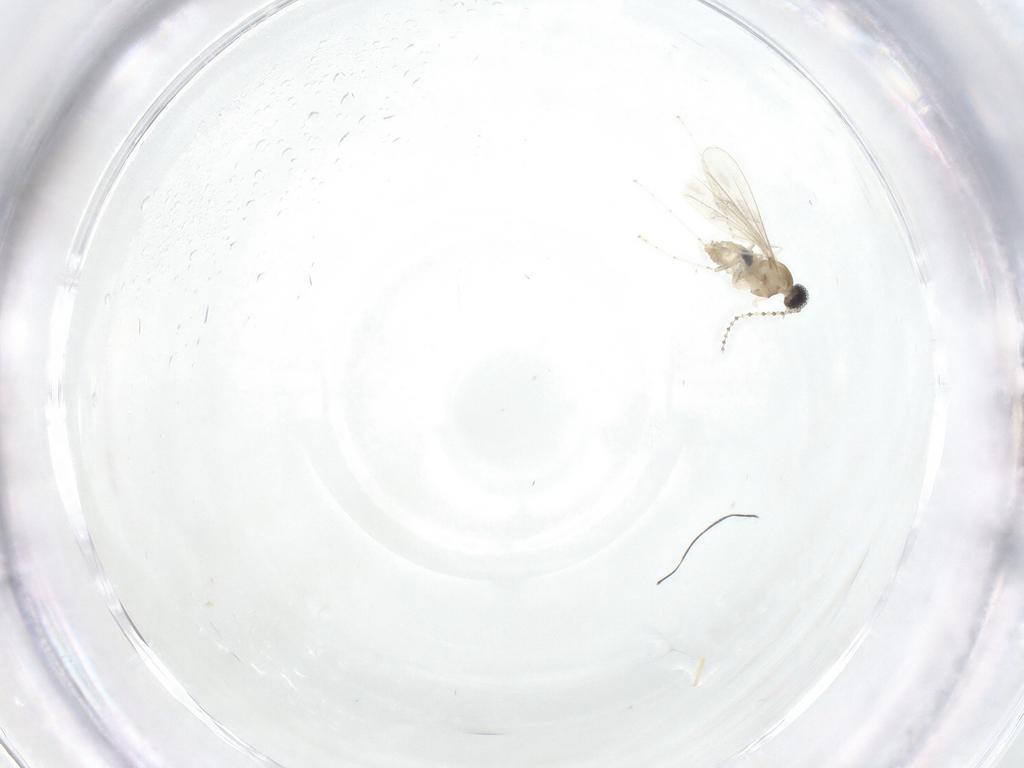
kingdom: Animalia
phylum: Arthropoda
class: Insecta
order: Diptera
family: Cecidomyiidae
